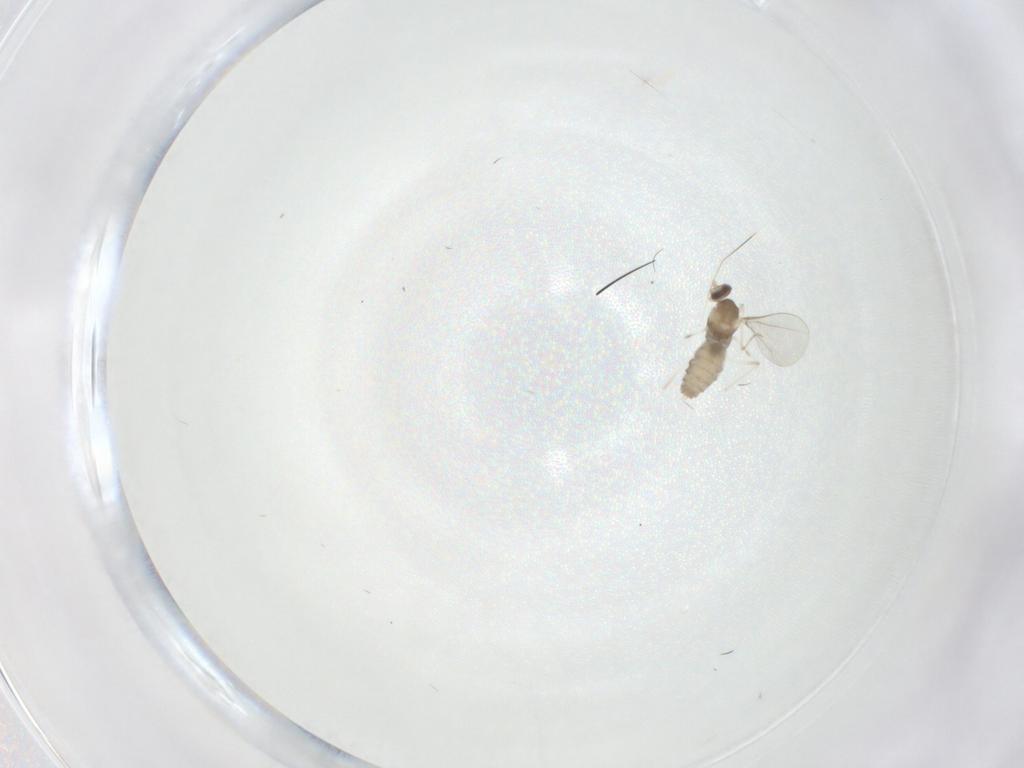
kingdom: Animalia
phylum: Arthropoda
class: Insecta
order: Diptera
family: Cecidomyiidae
